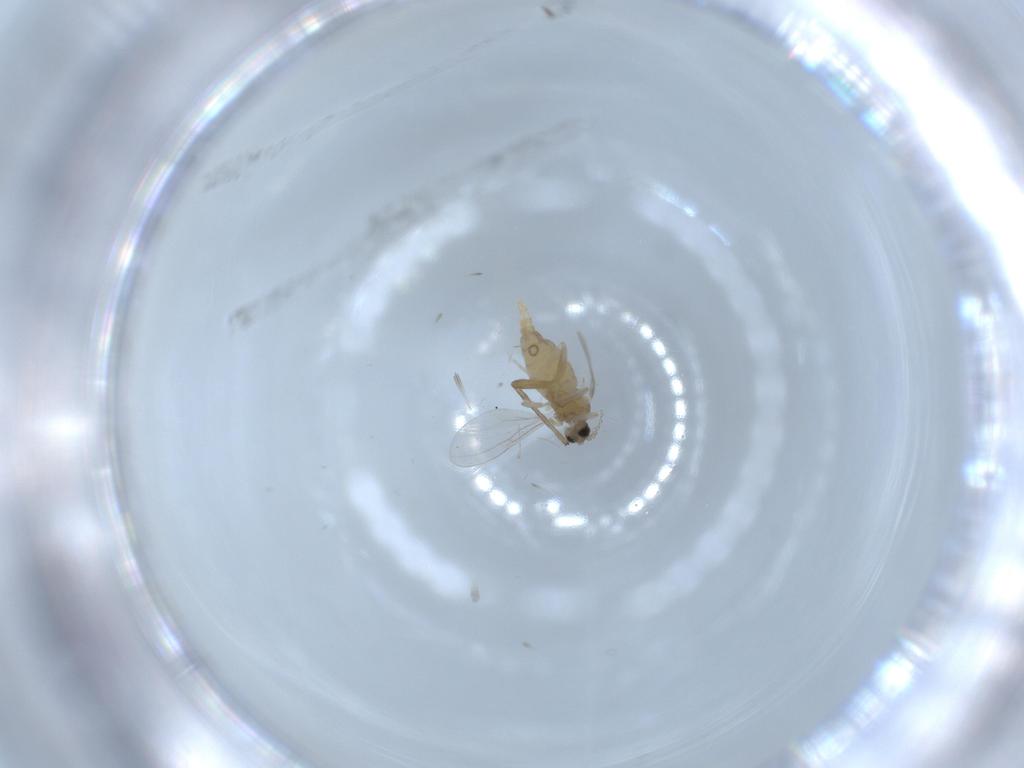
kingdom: Animalia
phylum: Arthropoda
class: Insecta
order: Diptera
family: Cecidomyiidae
